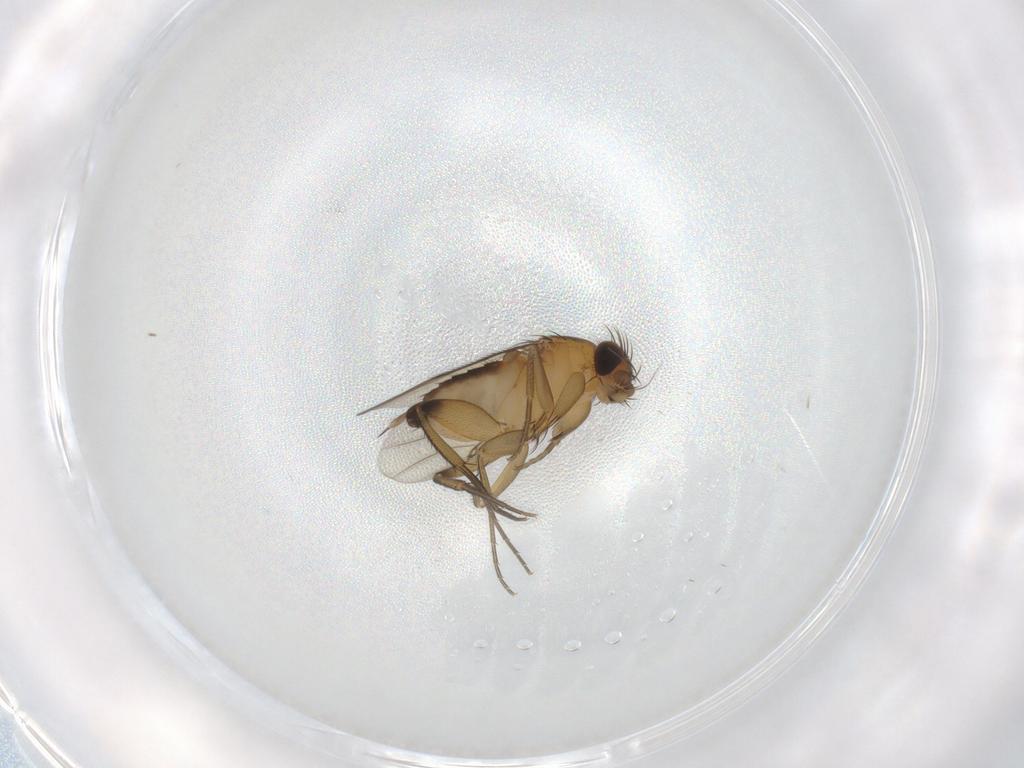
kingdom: Animalia
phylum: Arthropoda
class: Insecta
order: Diptera
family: Phoridae
